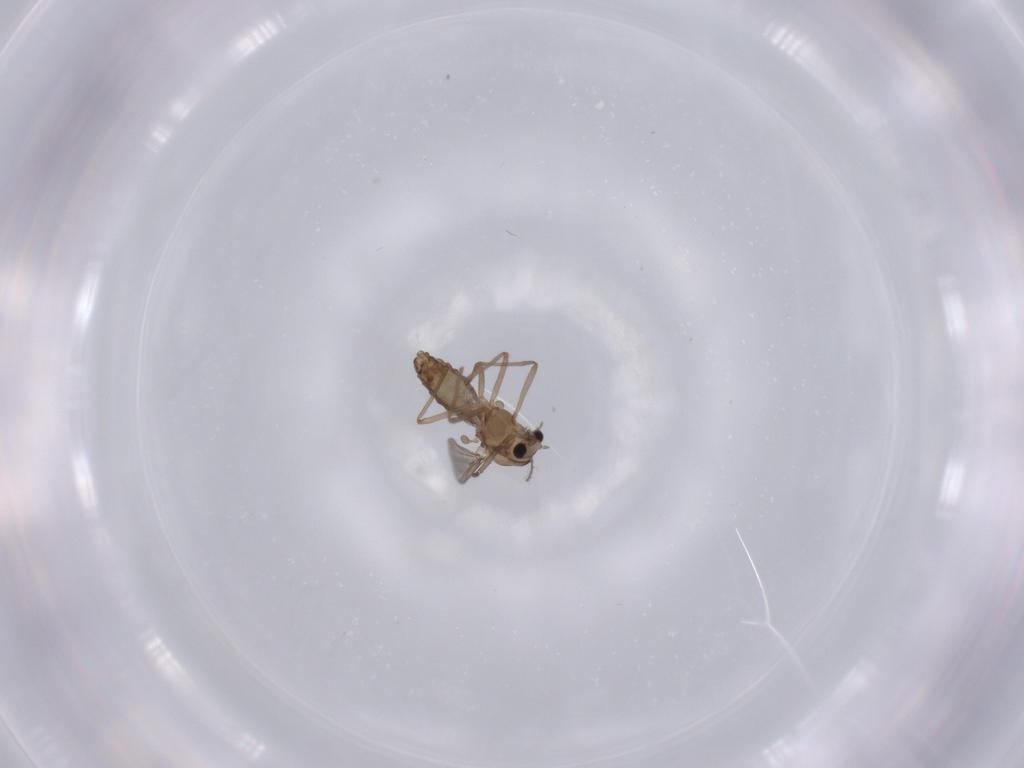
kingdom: Animalia
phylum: Arthropoda
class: Insecta
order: Diptera
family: Chironomidae
